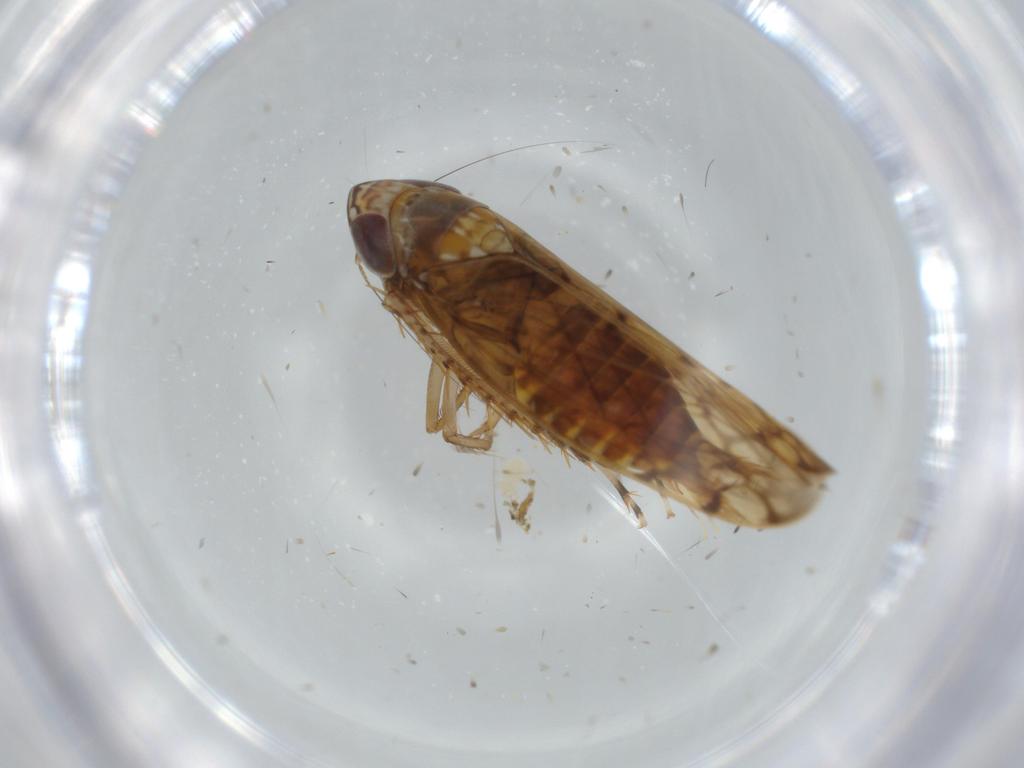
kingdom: Animalia
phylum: Arthropoda
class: Insecta
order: Hemiptera
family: Cicadellidae
